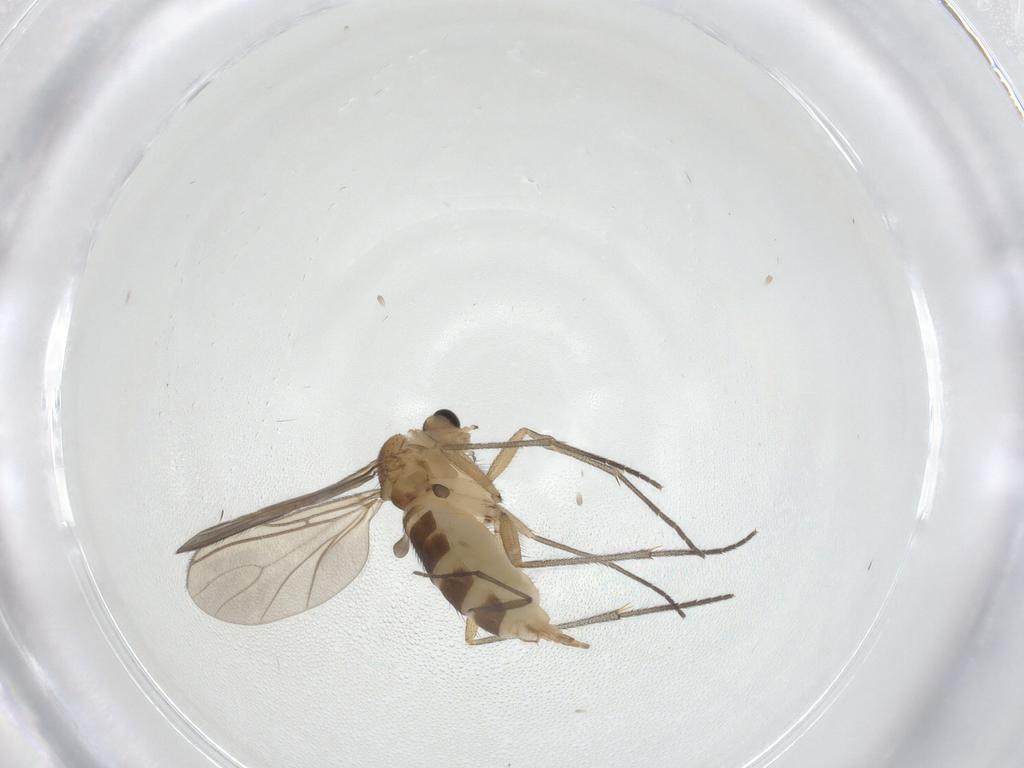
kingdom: Animalia
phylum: Arthropoda
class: Insecta
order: Diptera
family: Sciaridae
